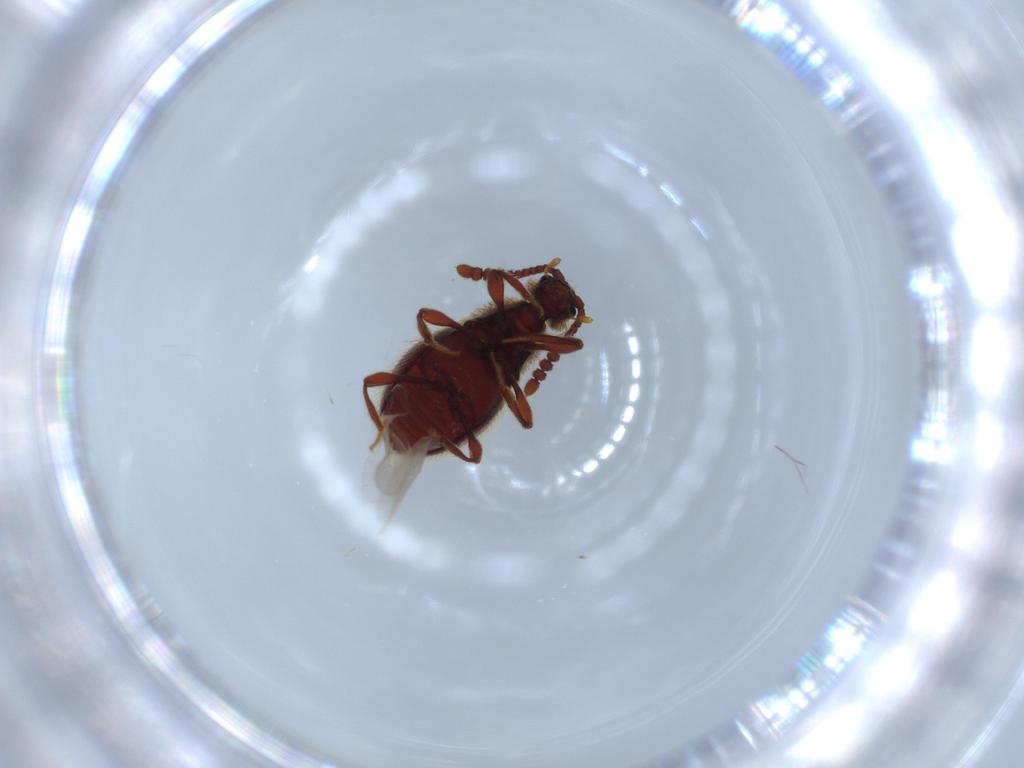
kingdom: Animalia
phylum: Arthropoda
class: Insecta
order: Coleoptera
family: Staphylinidae
